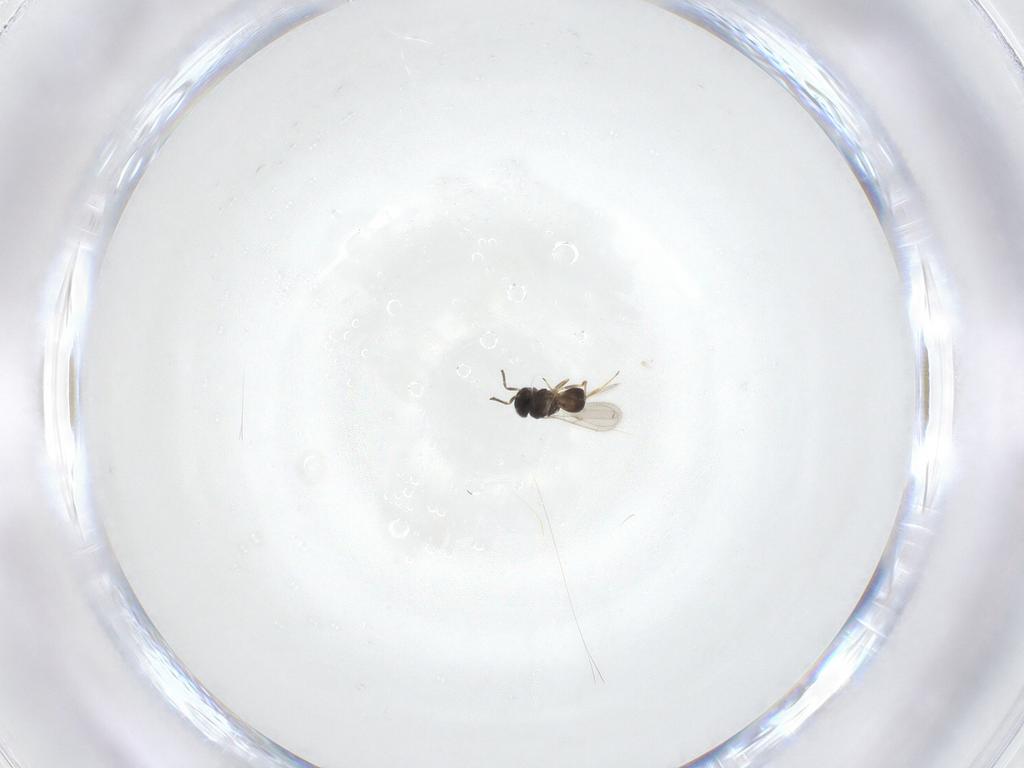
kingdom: Animalia
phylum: Arthropoda
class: Insecta
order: Hymenoptera
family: Scelionidae
